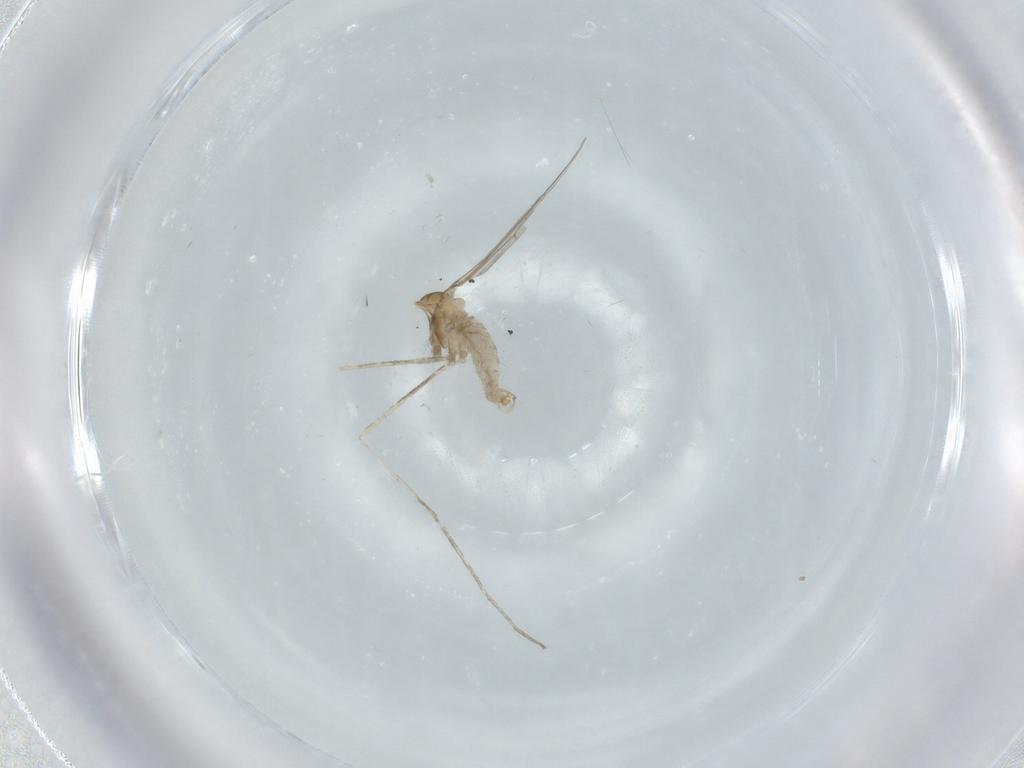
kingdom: Animalia
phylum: Arthropoda
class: Insecta
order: Diptera
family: Cecidomyiidae
